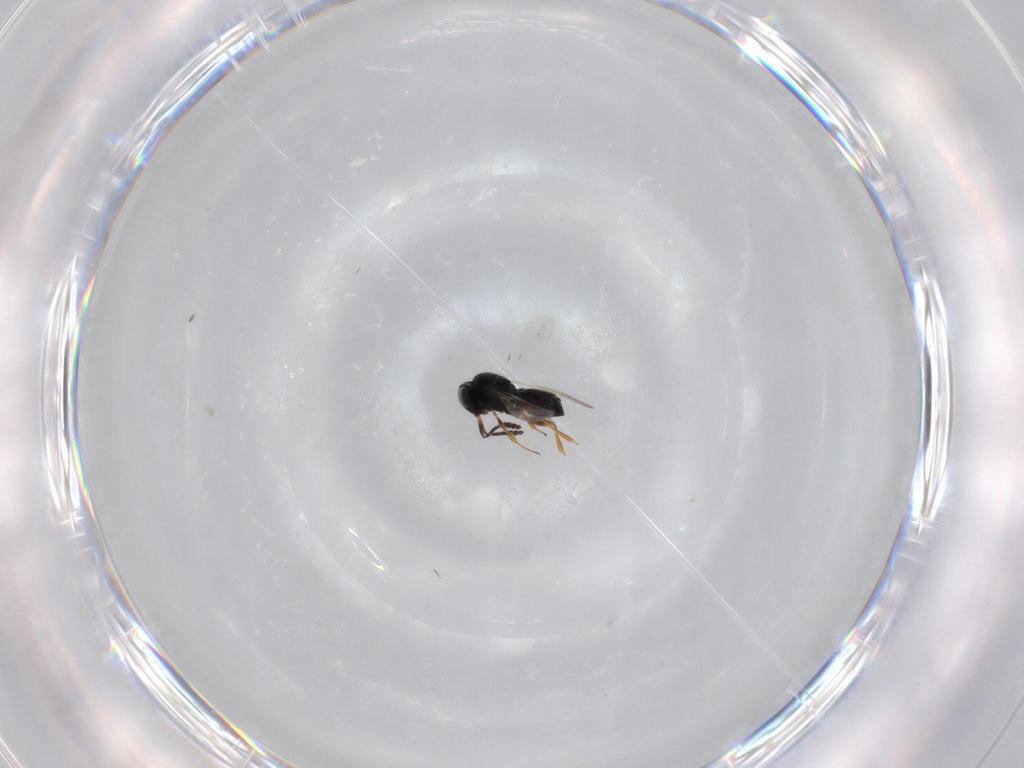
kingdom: Animalia
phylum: Arthropoda
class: Insecta
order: Hymenoptera
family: Scelionidae
